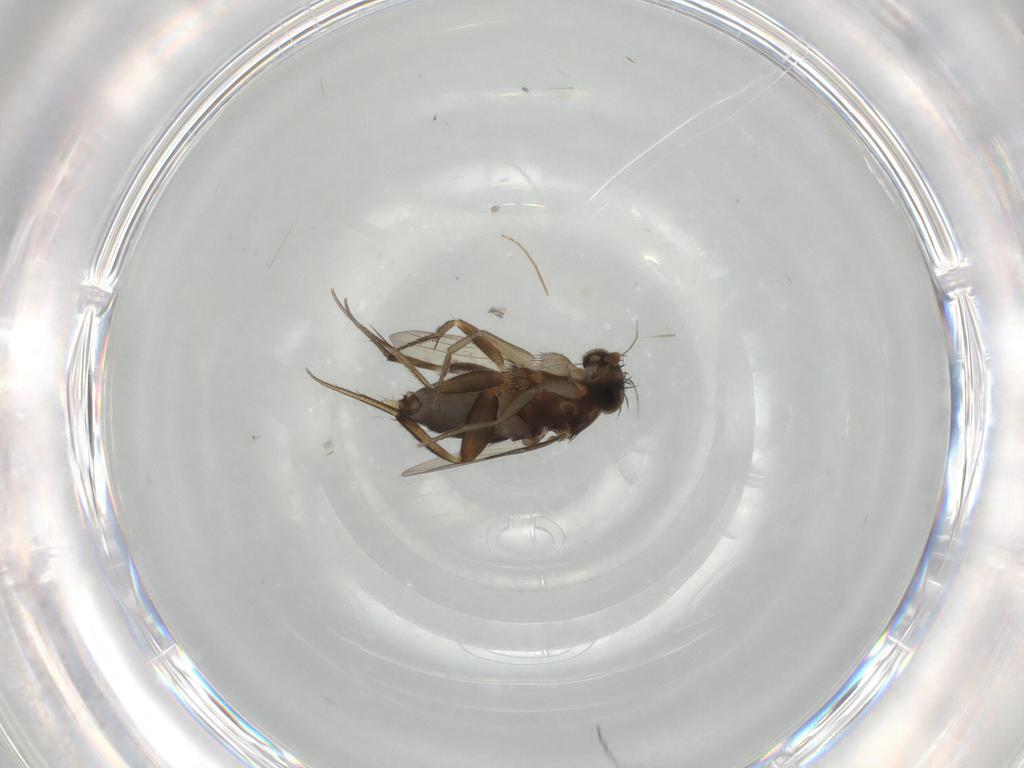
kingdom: Animalia
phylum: Arthropoda
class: Insecta
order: Diptera
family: Phoridae
